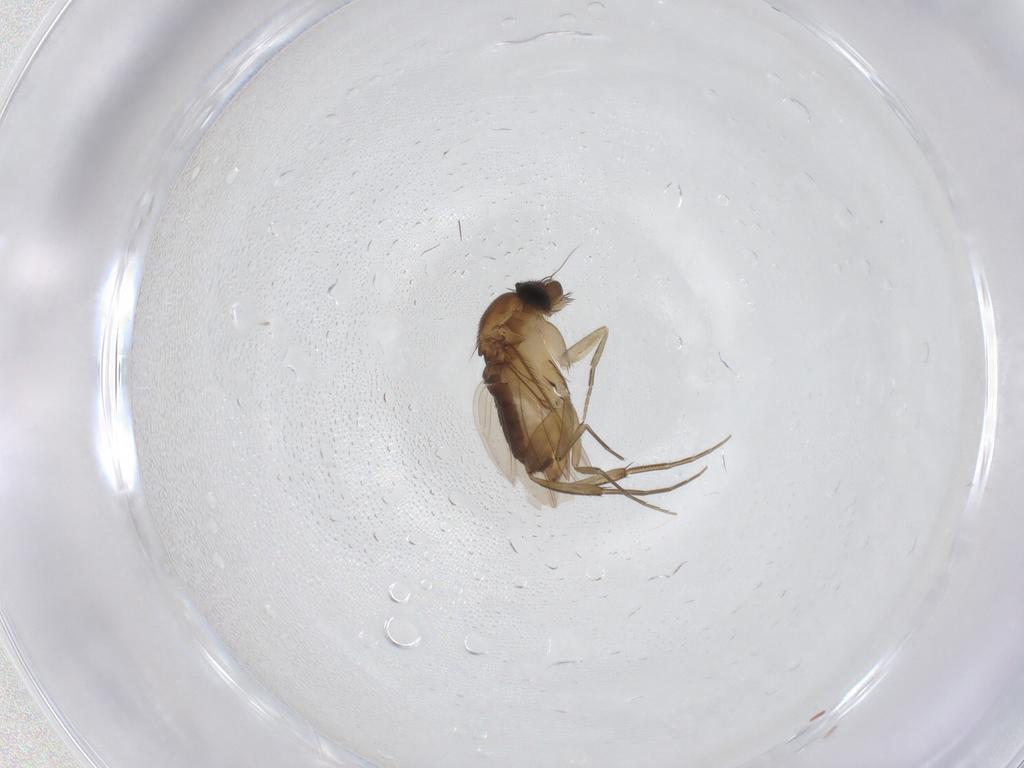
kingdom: Animalia
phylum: Arthropoda
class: Insecta
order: Diptera
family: Phoridae
